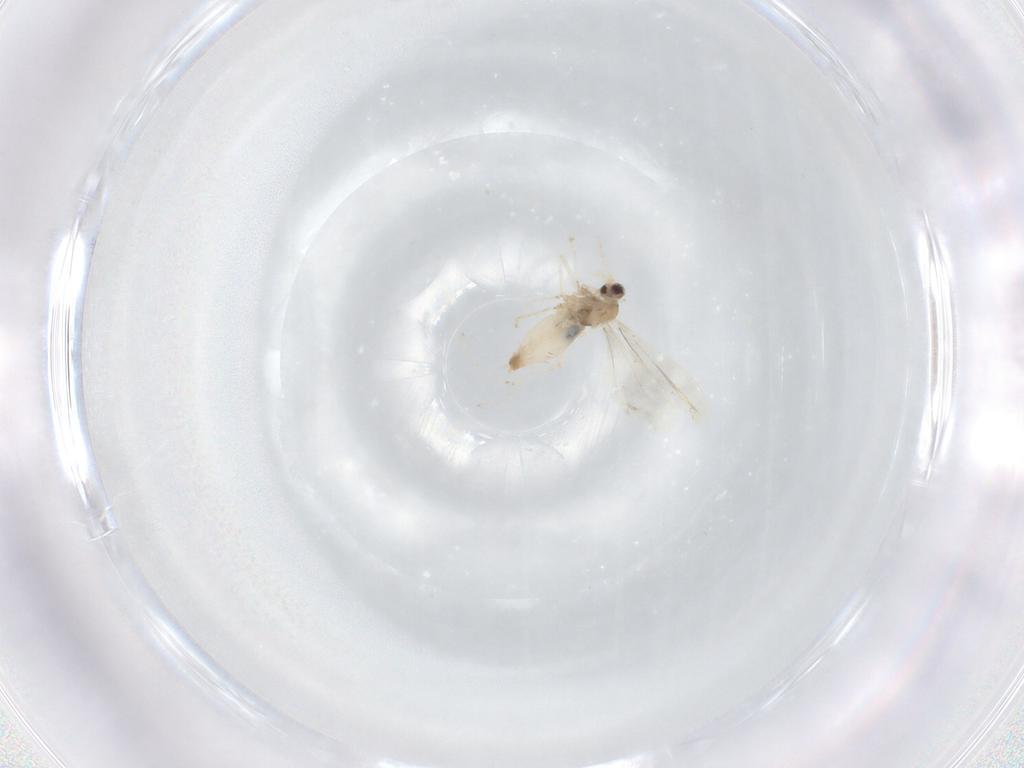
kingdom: Animalia
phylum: Arthropoda
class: Insecta
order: Diptera
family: Cecidomyiidae
